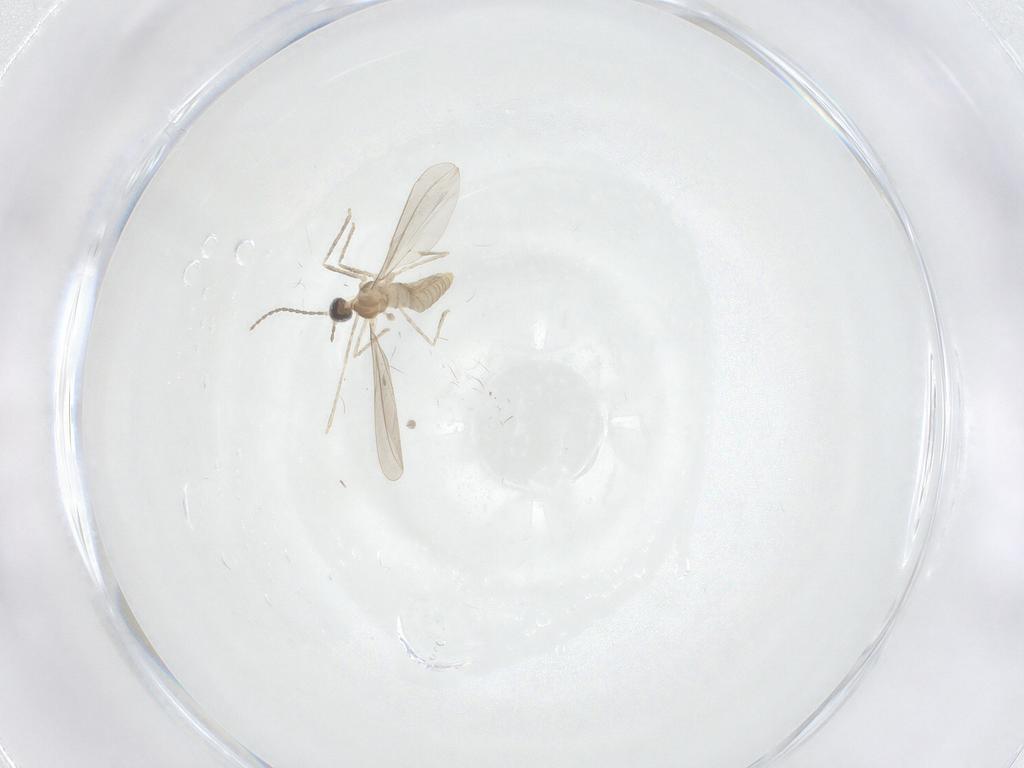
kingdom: Animalia
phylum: Arthropoda
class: Insecta
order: Diptera
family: Cecidomyiidae
